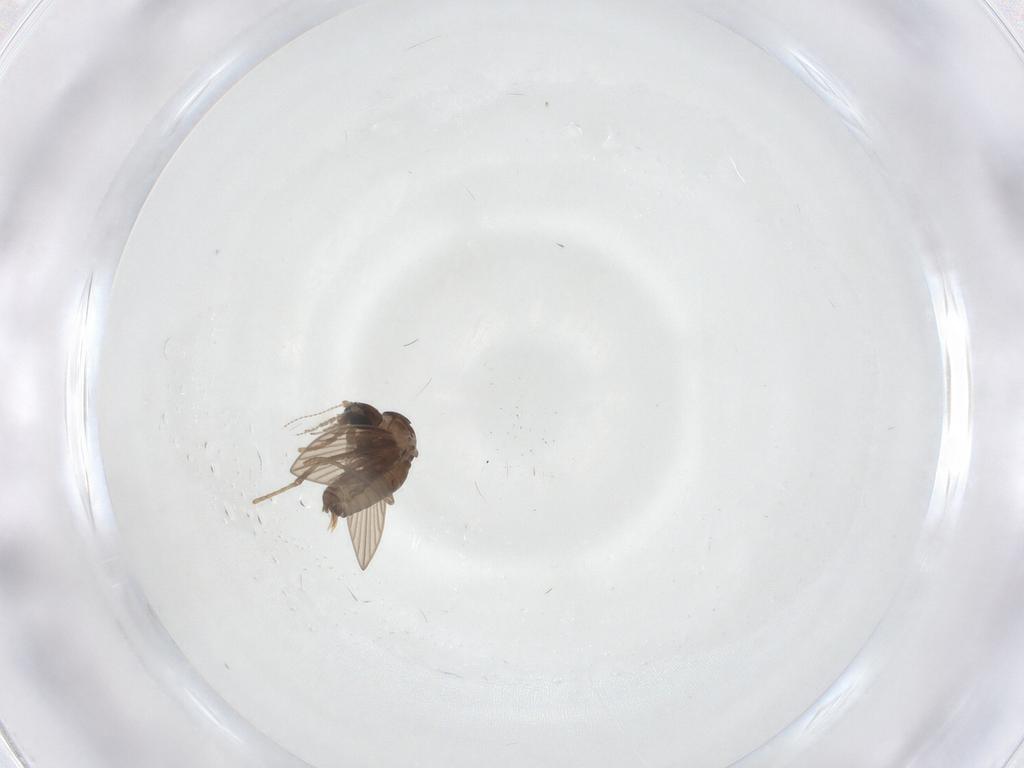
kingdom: Animalia
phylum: Arthropoda
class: Insecta
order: Diptera
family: Psychodidae
